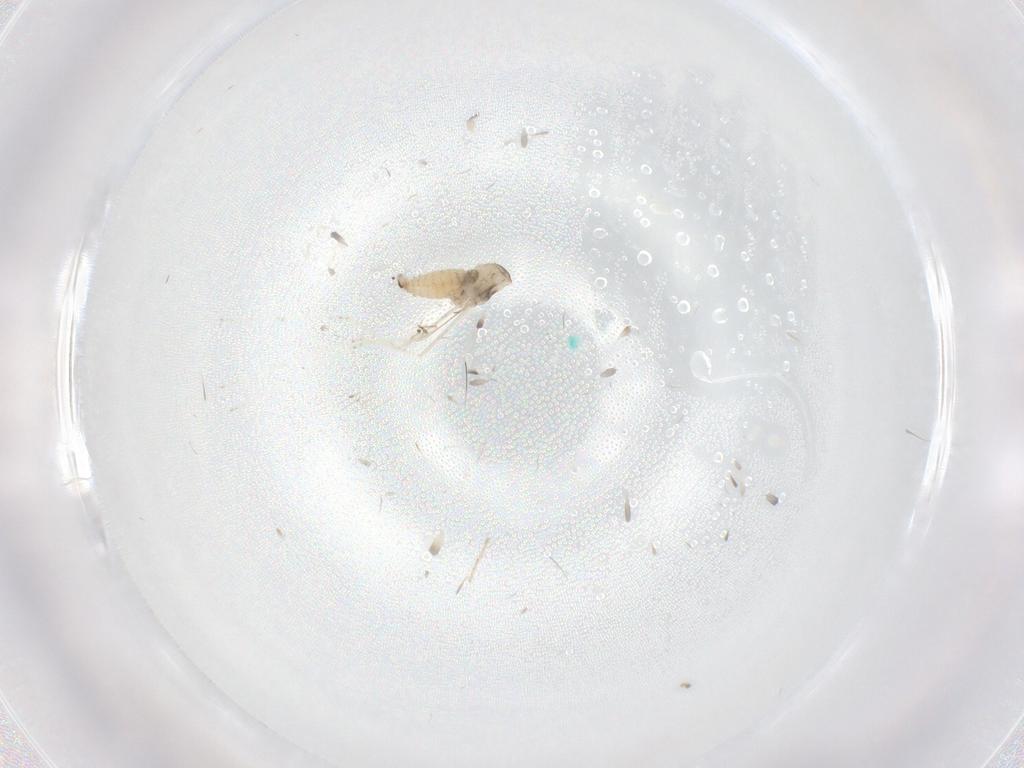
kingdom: Animalia
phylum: Arthropoda
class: Insecta
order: Diptera
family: Cecidomyiidae
